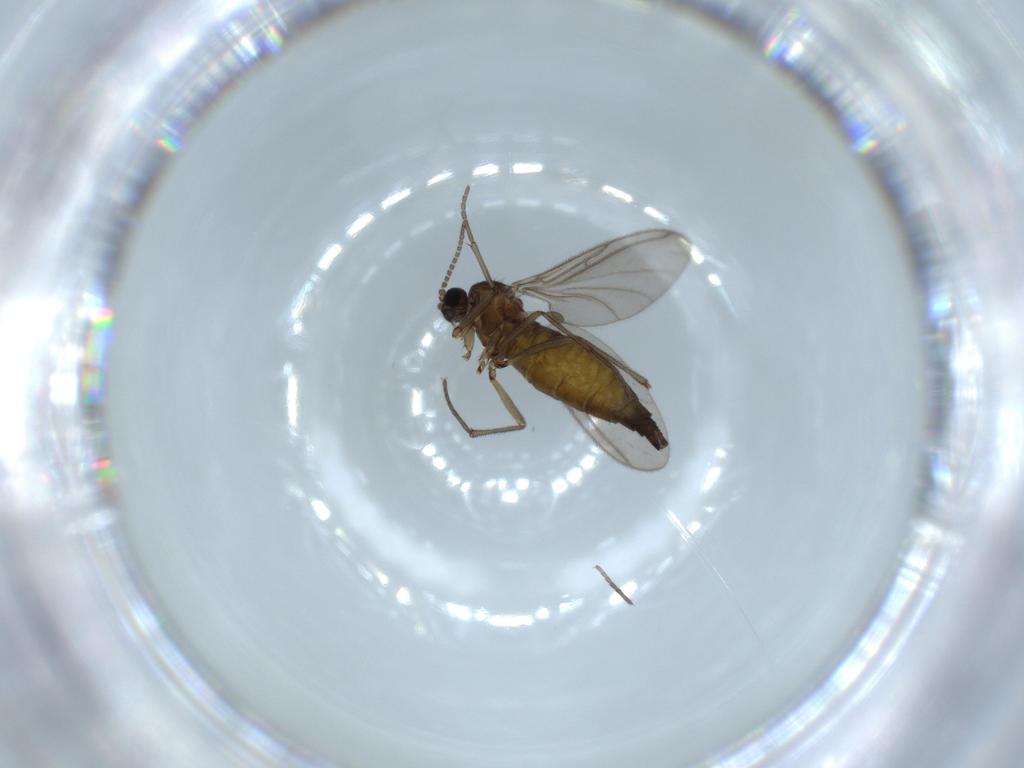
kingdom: Animalia
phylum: Arthropoda
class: Insecta
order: Diptera
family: Sciaridae
